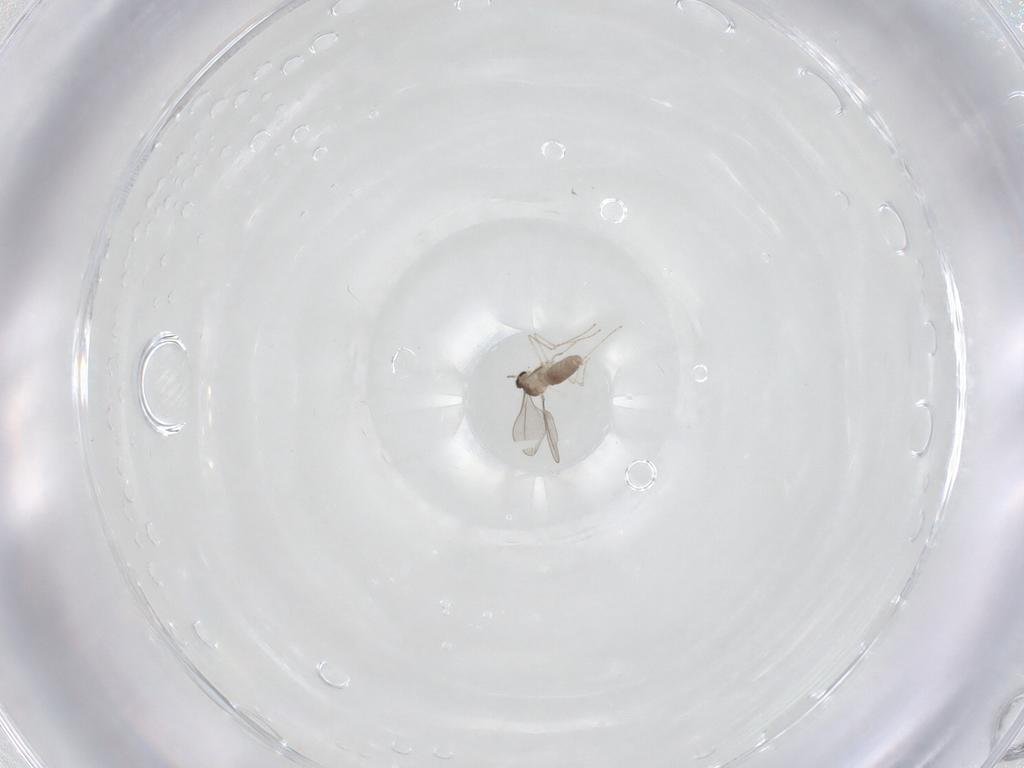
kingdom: Animalia
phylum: Arthropoda
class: Insecta
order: Diptera
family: Cecidomyiidae
